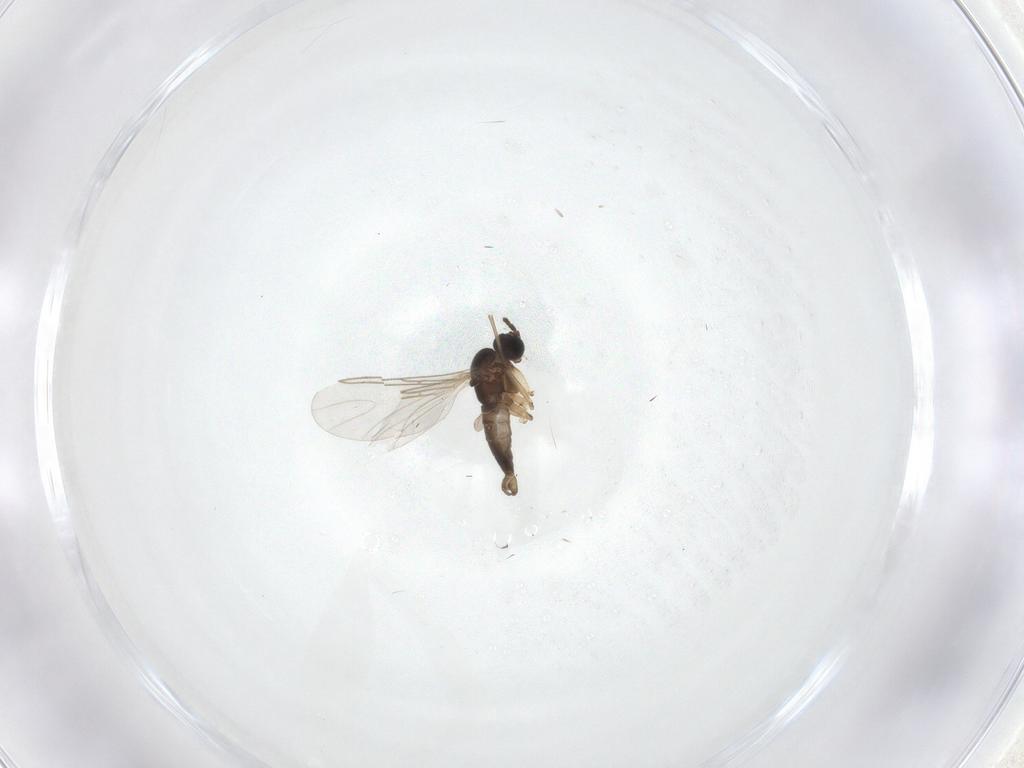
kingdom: Animalia
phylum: Arthropoda
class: Insecta
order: Diptera
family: Sciaridae
